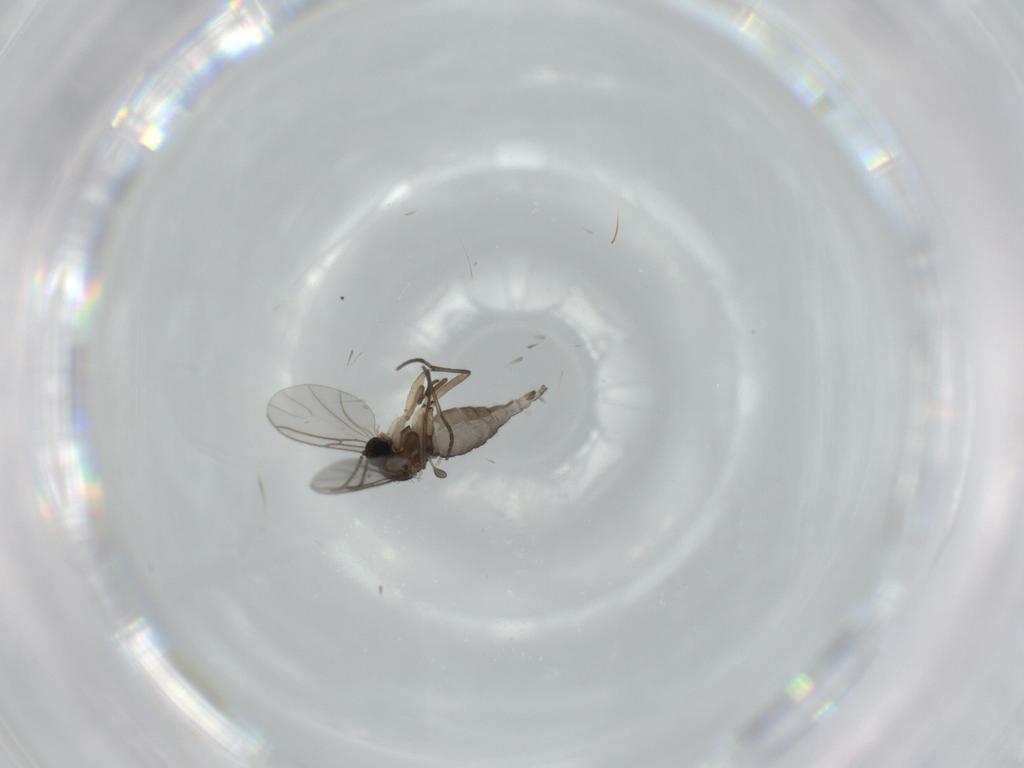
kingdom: Animalia
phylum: Arthropoda
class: Insecta
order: Diptera
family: Sciaridae
